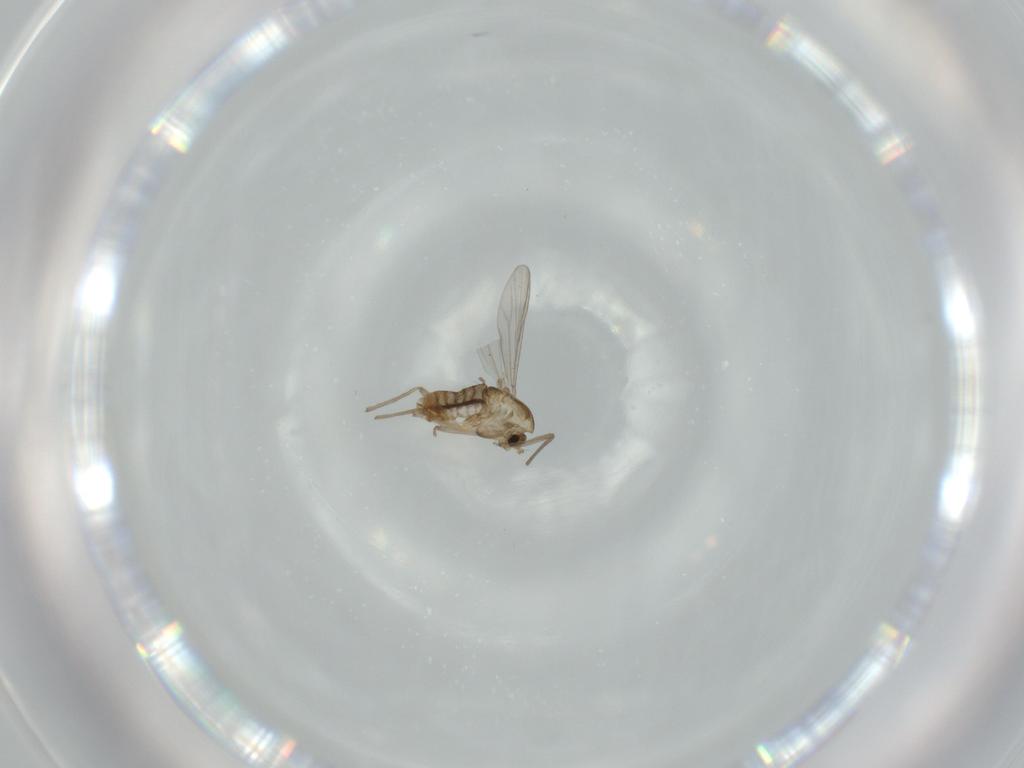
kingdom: Animalia
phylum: Arthropoda
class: Insecta
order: Diptera
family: Chironomidae
